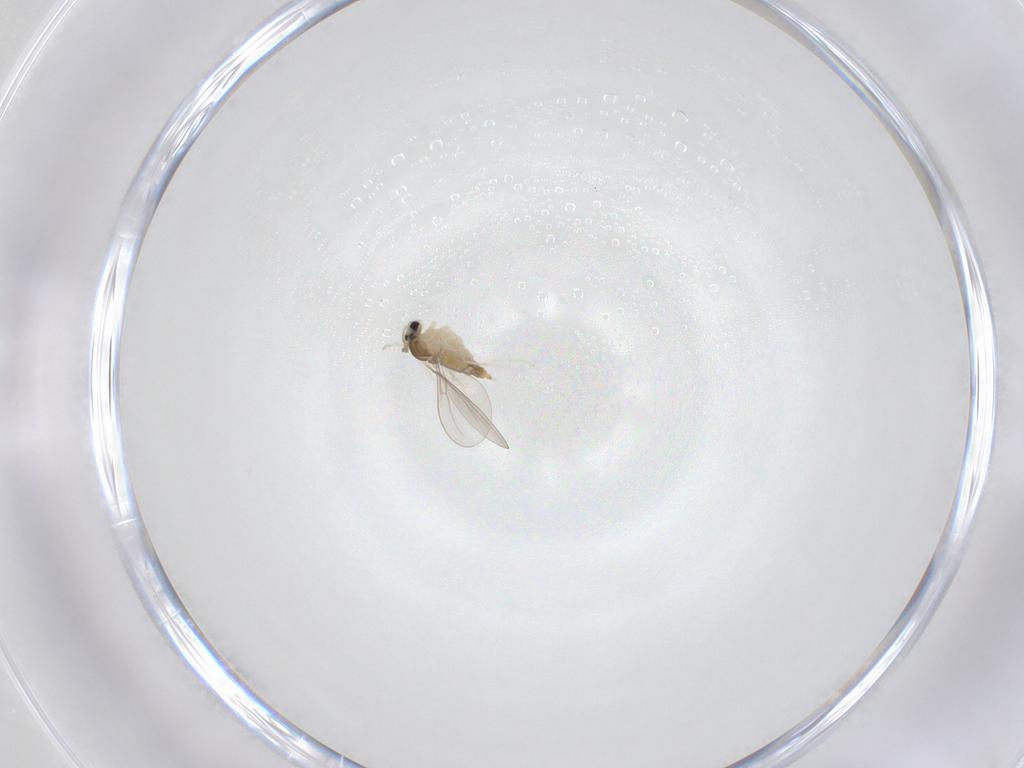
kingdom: Animalia
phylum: Arthropoda
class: Insecta
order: Diptera
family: Cecidomyiidae
